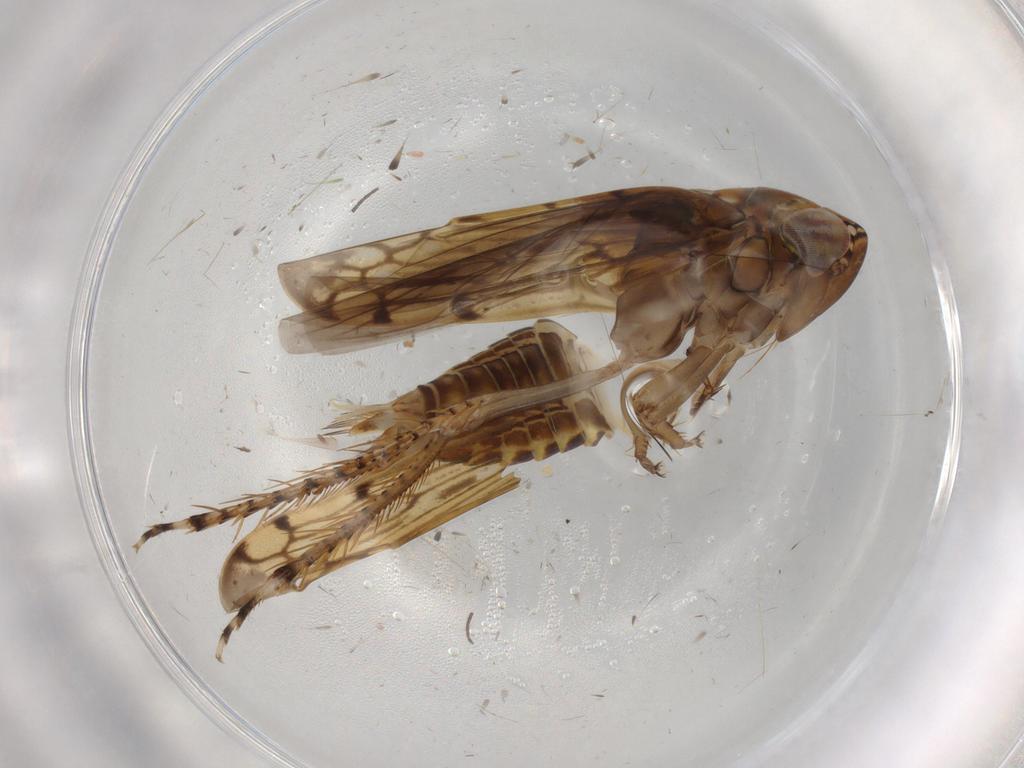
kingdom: Animalia
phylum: Arthropoda
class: Insecta
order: Hemiptera
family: Cicadellidae
